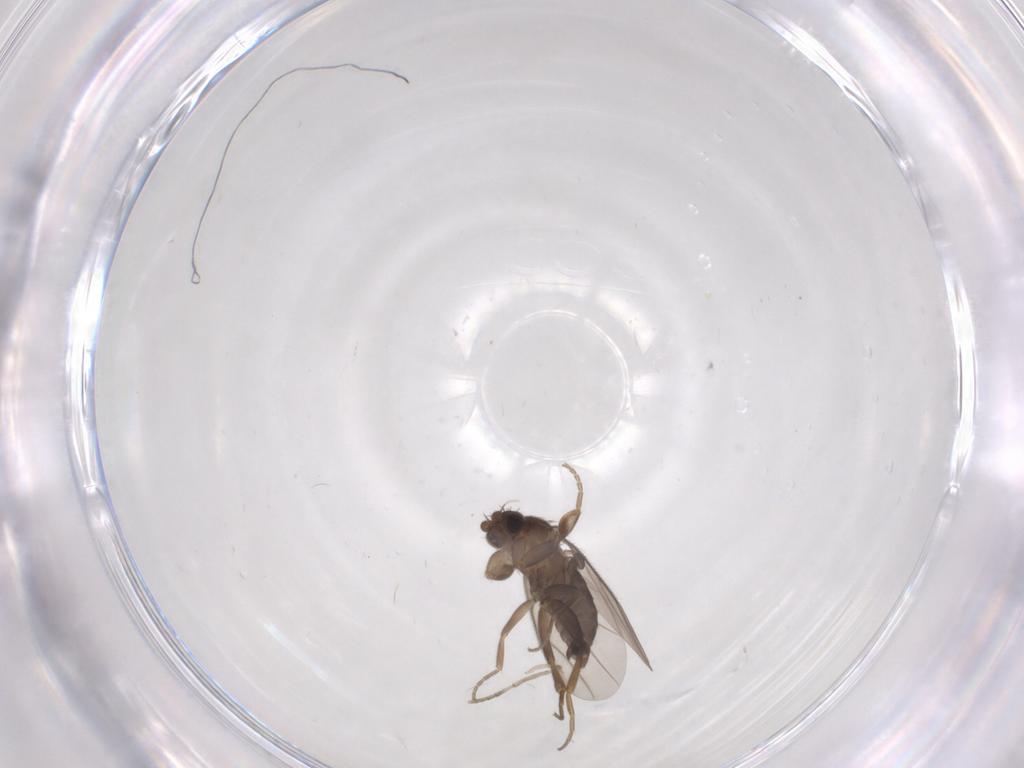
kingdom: Animalia
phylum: Arthropoda
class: Insecta
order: Diptera
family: Phoridae
